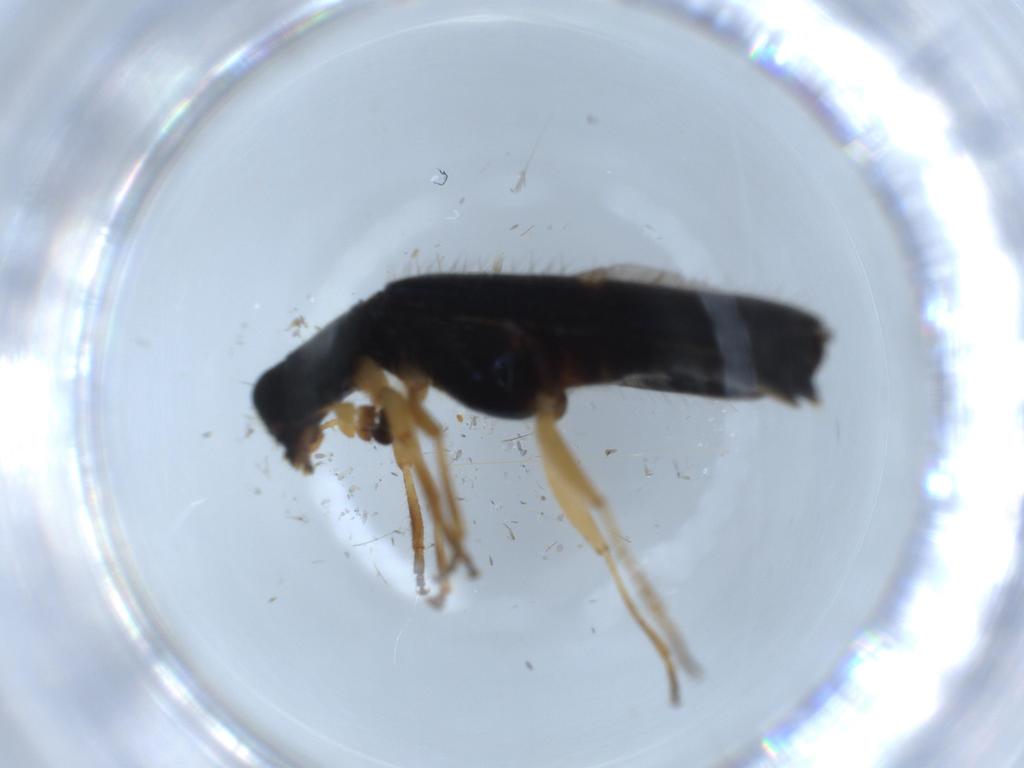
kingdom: Animalia
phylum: Arthropoda
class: Insecta
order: Coleoptera
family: Cleridae
